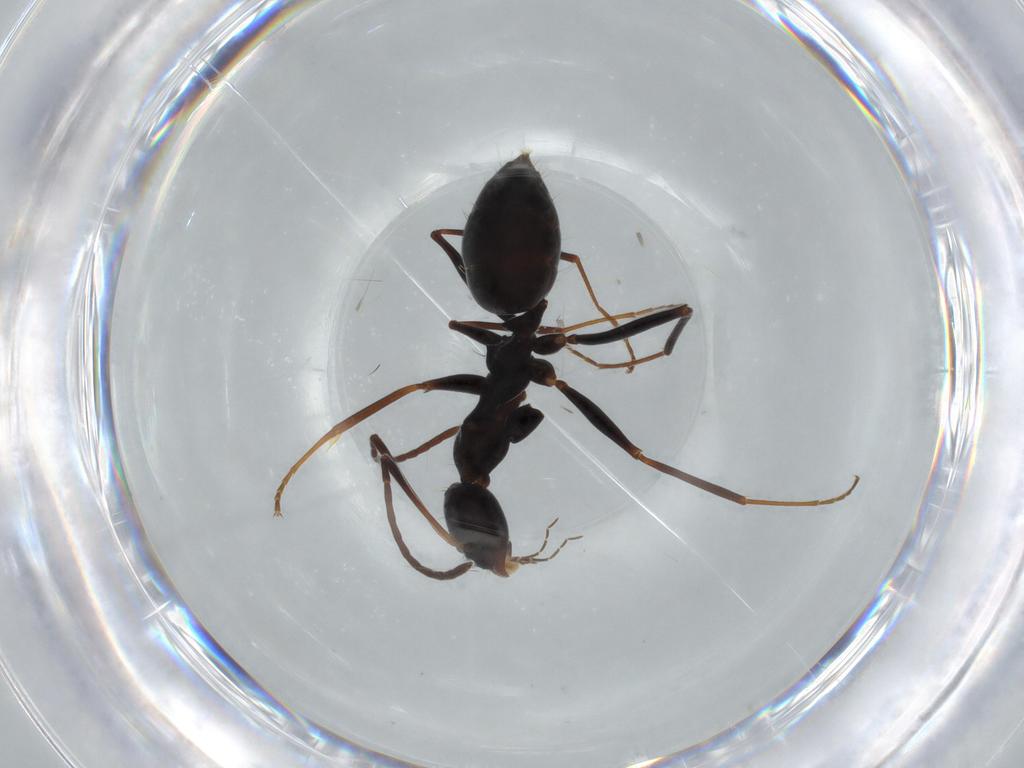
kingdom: Animalia
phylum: Arthropoda
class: Insecta
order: Hymenoptera
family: Formicidae
